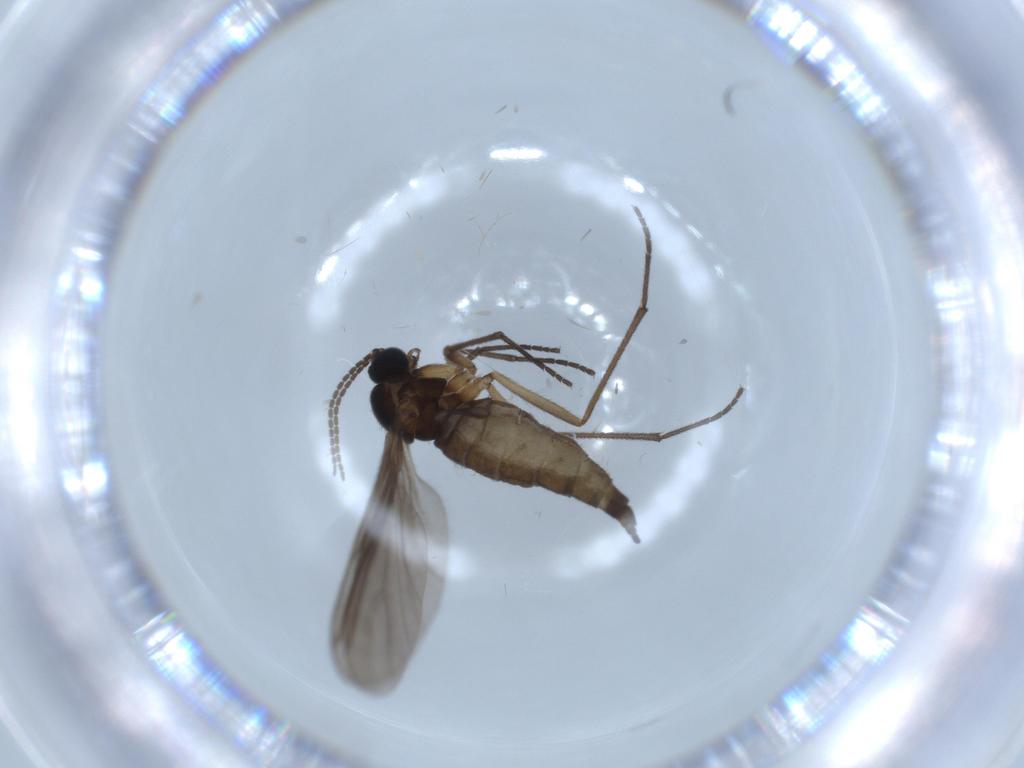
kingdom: Animalia
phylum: Arthropoda
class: Insecta
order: Diptera
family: Sciaridae
